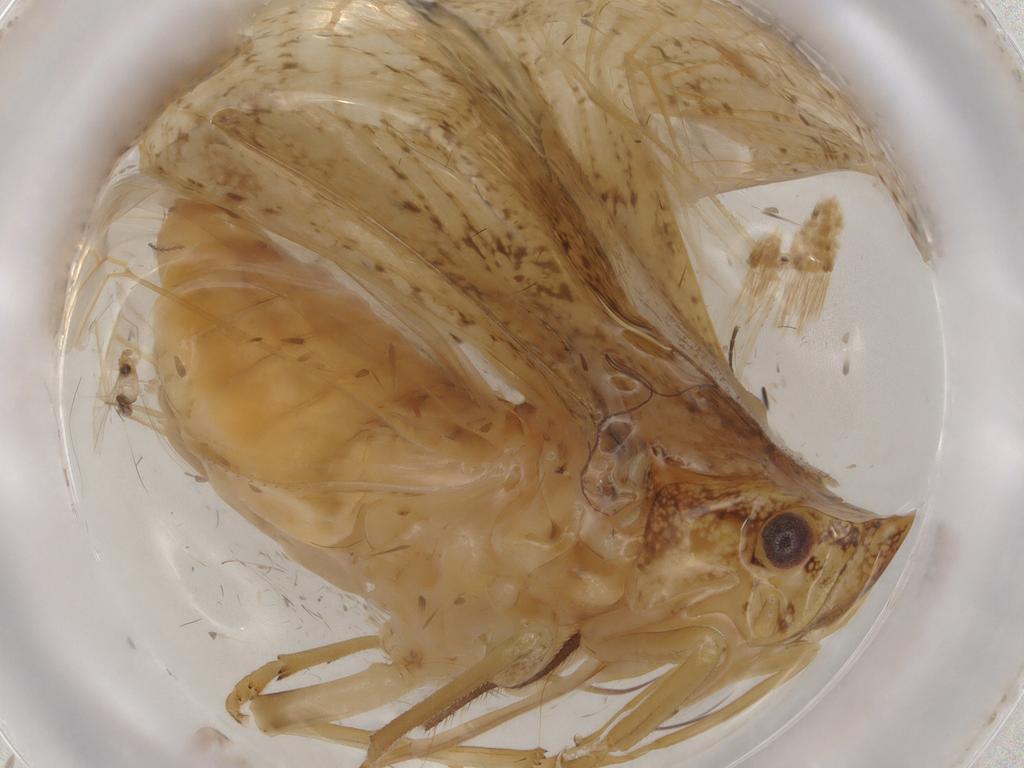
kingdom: Animalia
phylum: Arthropoda
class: Insecta
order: Hemiptera
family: Flatidae
